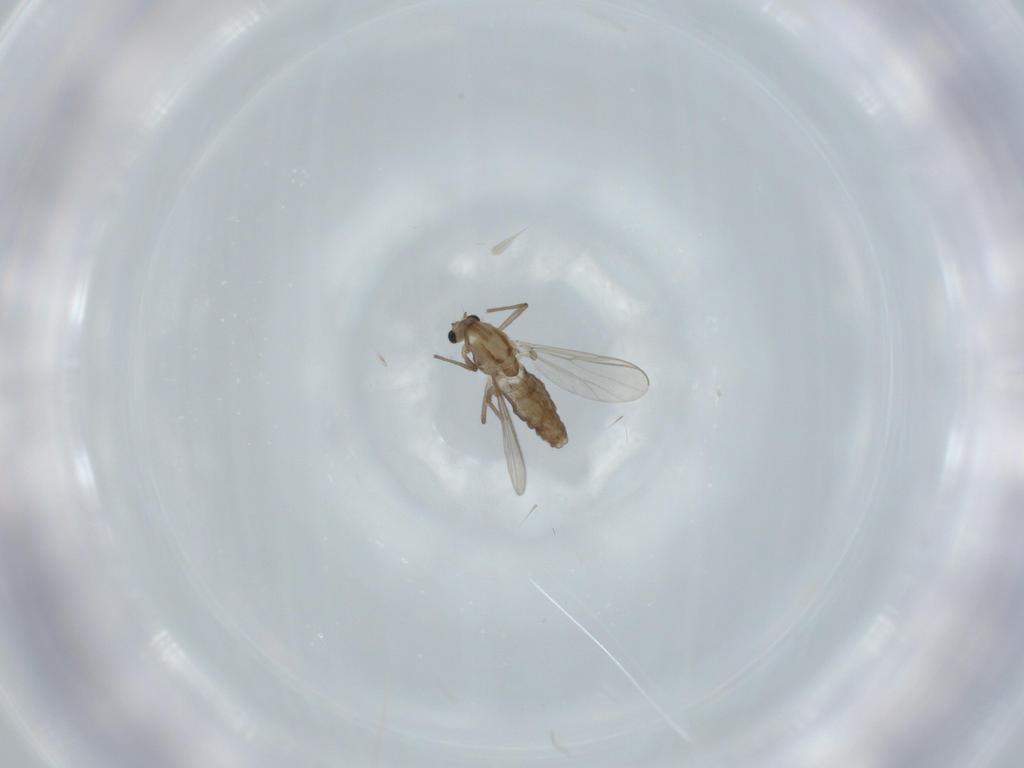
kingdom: Animalia
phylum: Arthropoda
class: Insecta
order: Diptera
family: Chironomidae
